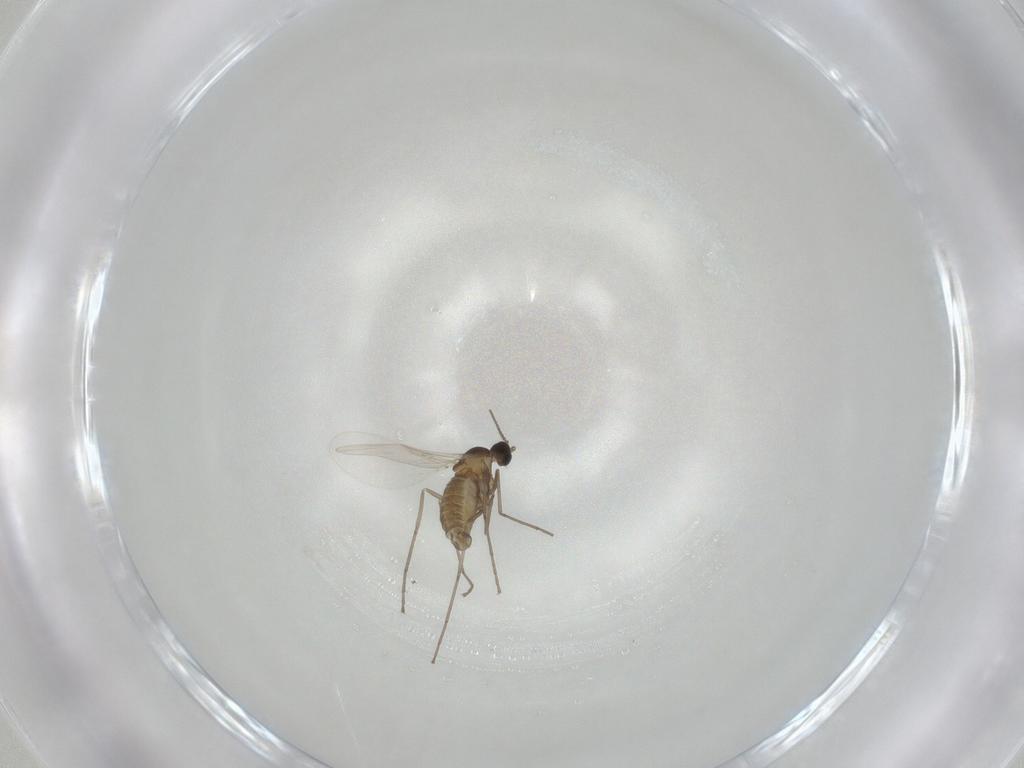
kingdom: Animalia
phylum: Arthropoda
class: Insecta
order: Diptera
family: Cecidomyiidae
